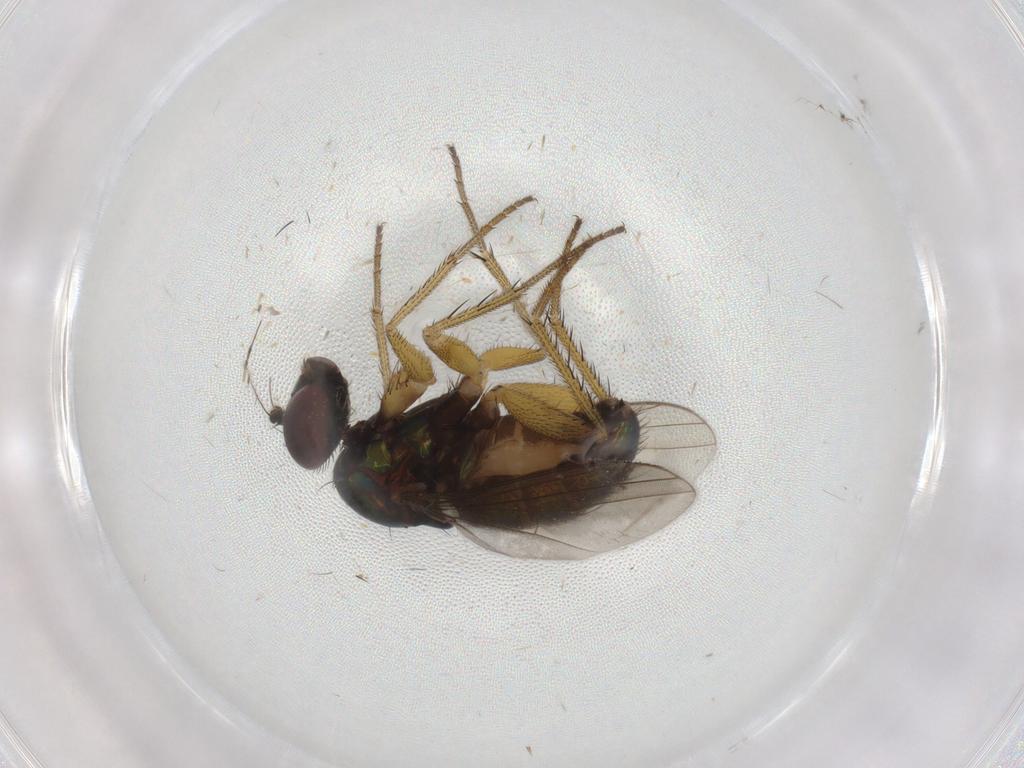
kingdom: Animalia
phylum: Arthropoda
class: Insecta
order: Diptera
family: Dolichopodidae
